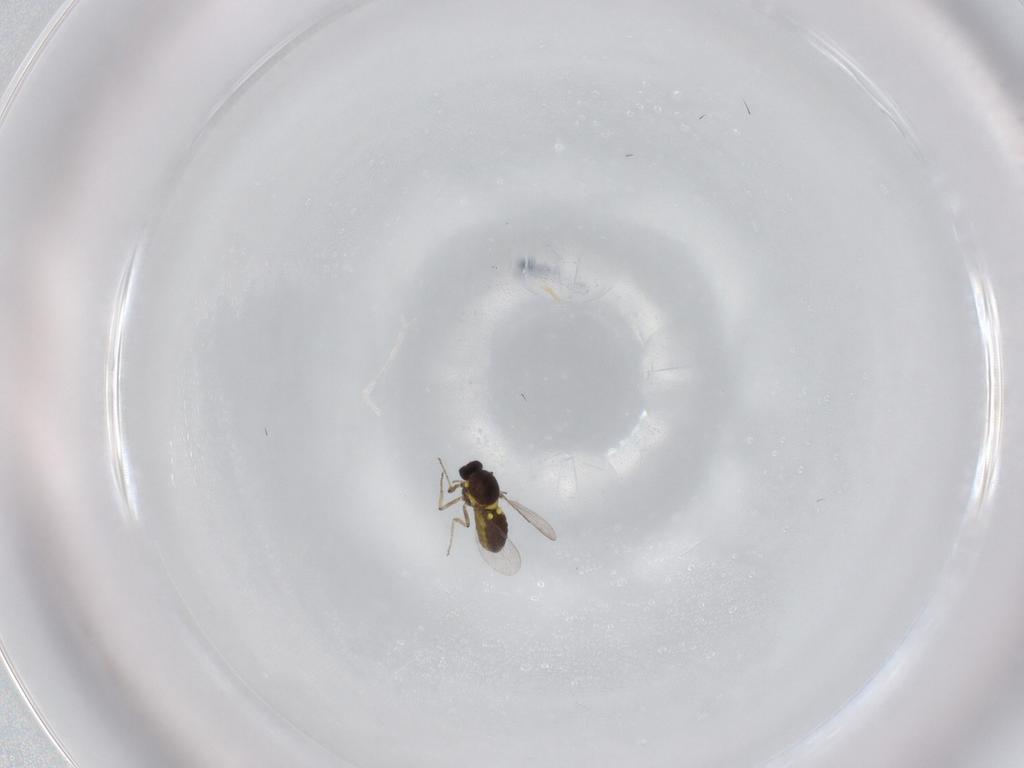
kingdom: Animalia
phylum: Arthropoda
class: Insecta
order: Diptera
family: Ceratopogonidae
